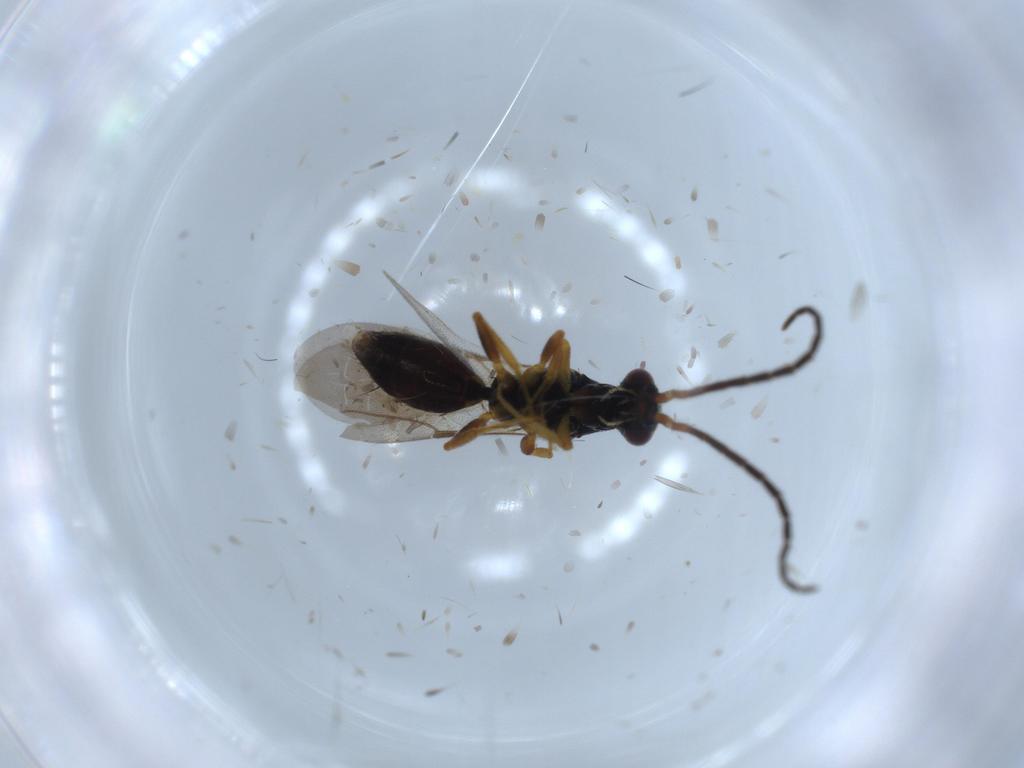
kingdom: Animalia
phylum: Arthropoda
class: Insecta
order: Hymenoptera
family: Bethylidae
